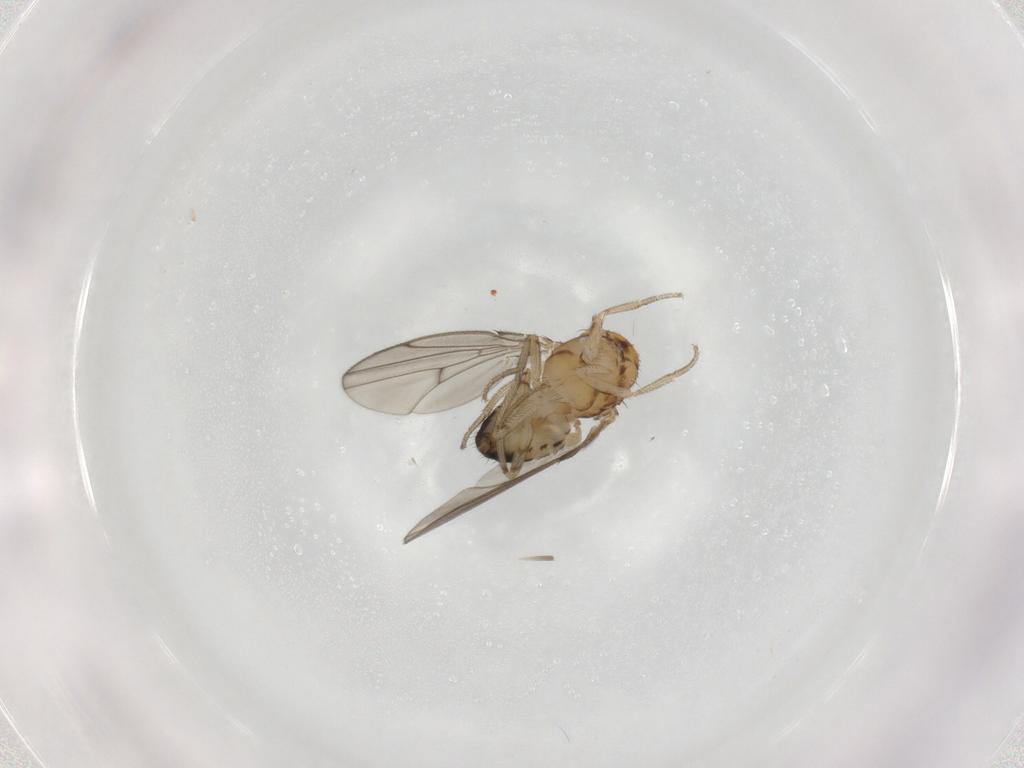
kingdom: Animalia
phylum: Arthropoda
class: Insecta
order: Diptera
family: Drosophilidae
